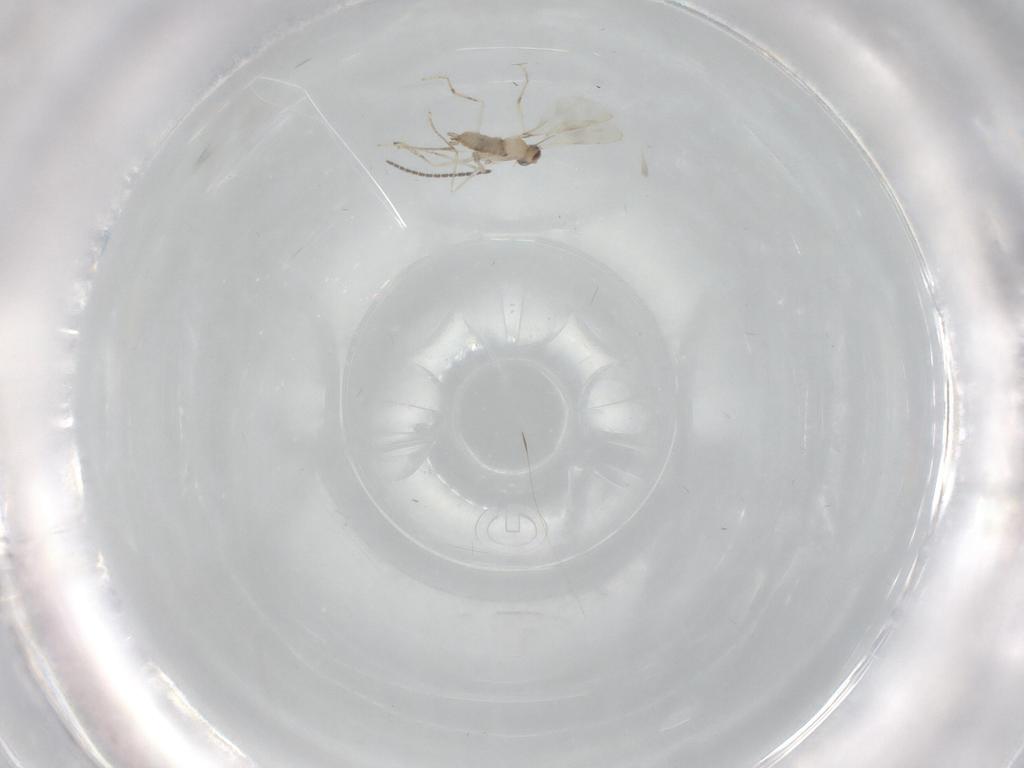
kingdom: Animalia
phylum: Arthropoda
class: Insecta
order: Diptera
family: Cecidomyiidae
